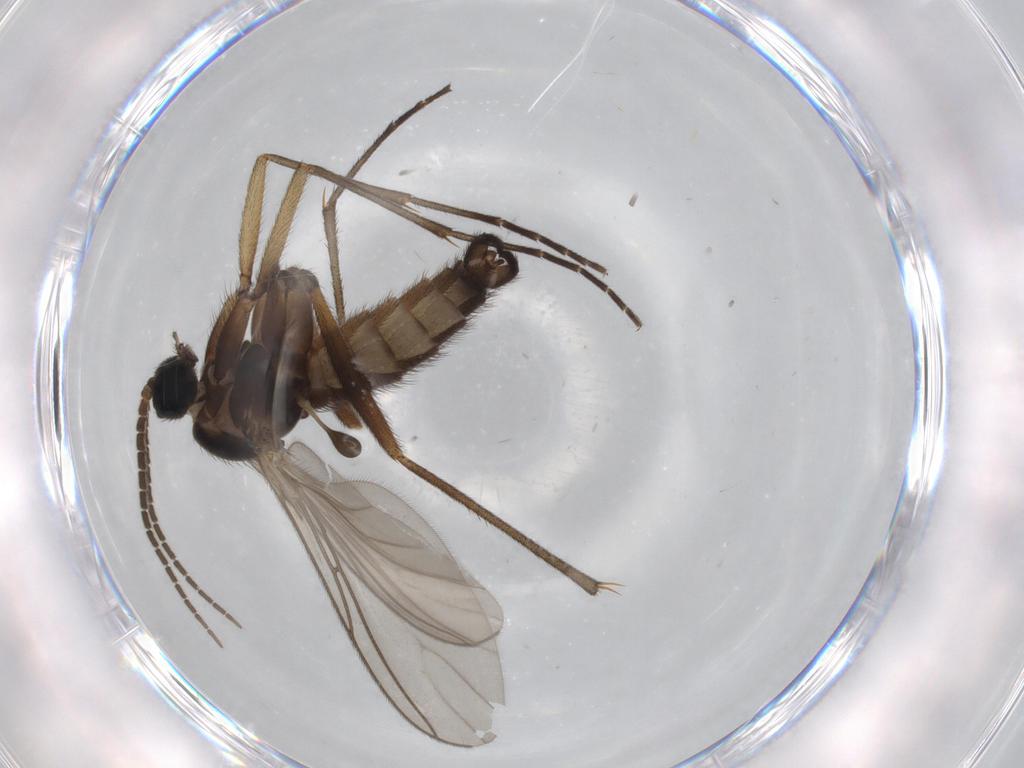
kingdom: Animalia
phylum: Arthropoda
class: Insecta
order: Diptera
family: Sciaridae
